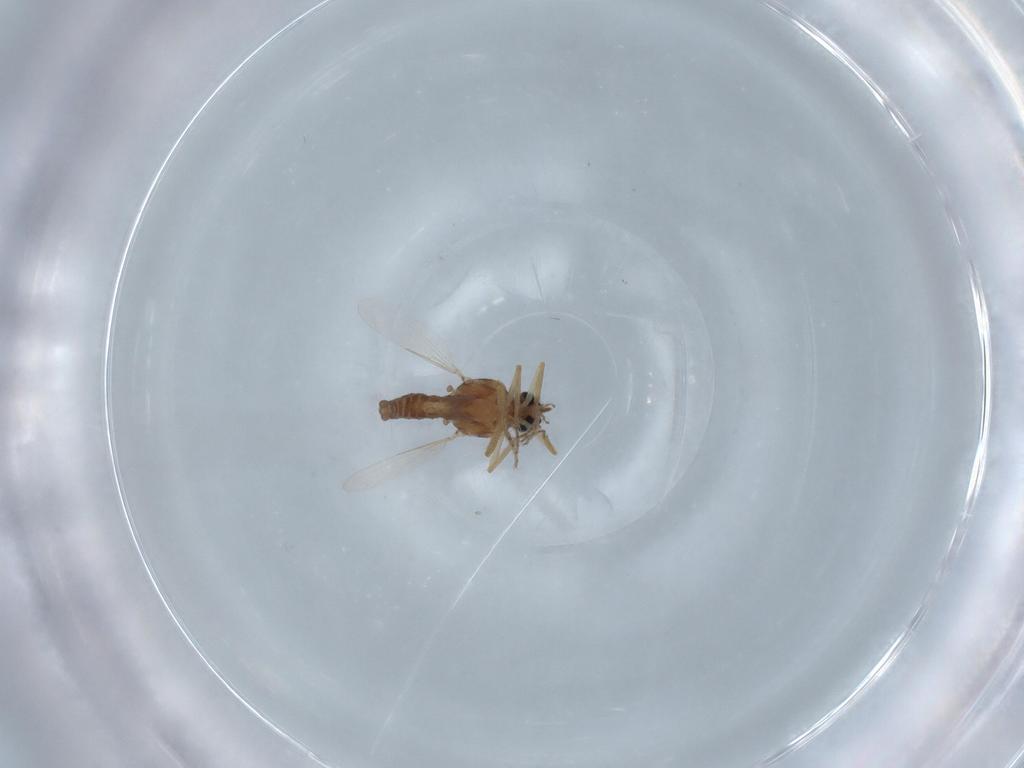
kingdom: Animalia
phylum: Arthropoda
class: Insecta
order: Diptera
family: Ceratopogonidae
